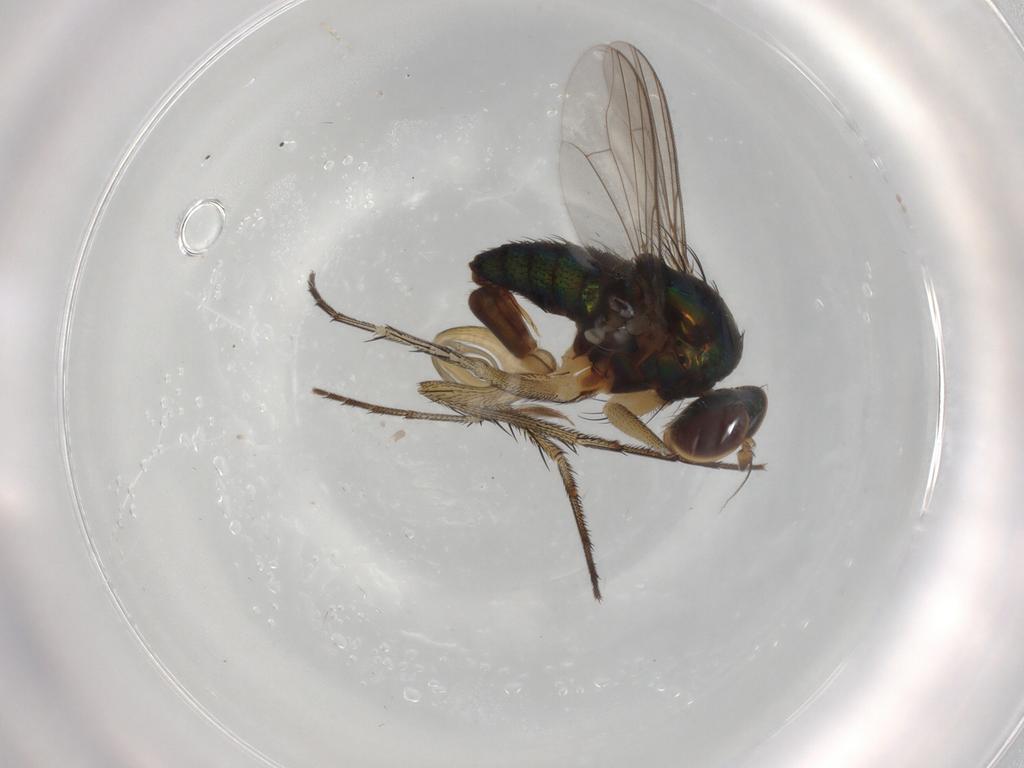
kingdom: Animalia
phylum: Arthropoda
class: Insecta
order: Diptera
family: Dolichopodidae
